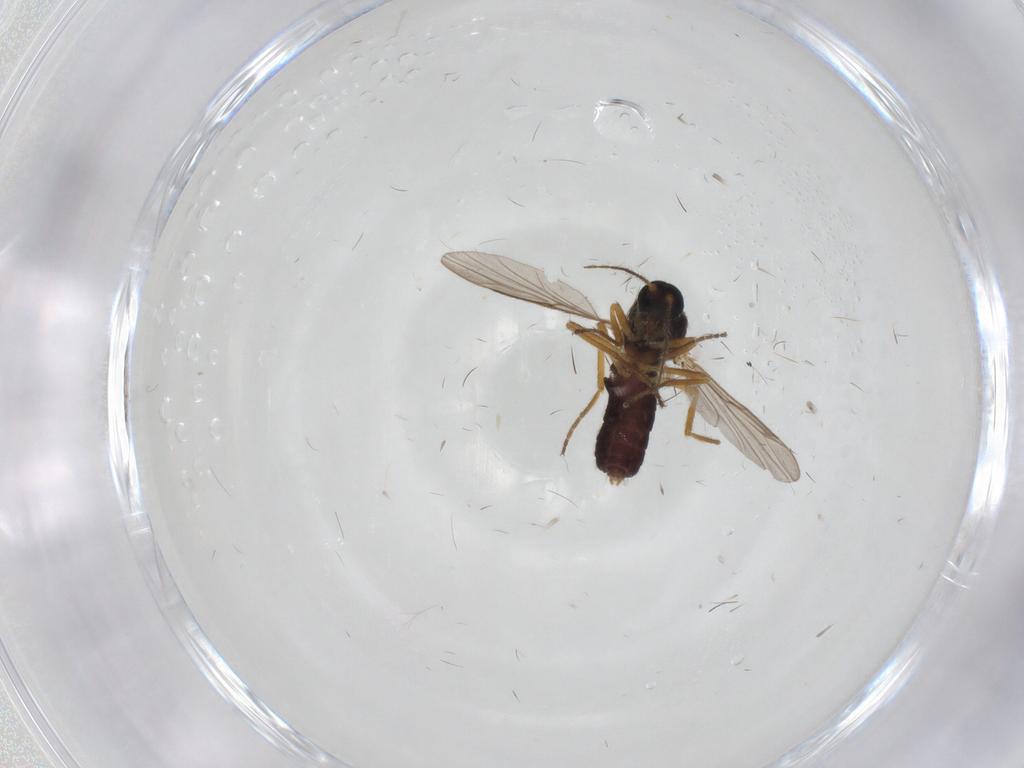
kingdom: Animalia
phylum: Arthropoda
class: Insecta
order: Diptera
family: Ceratopogonidae
